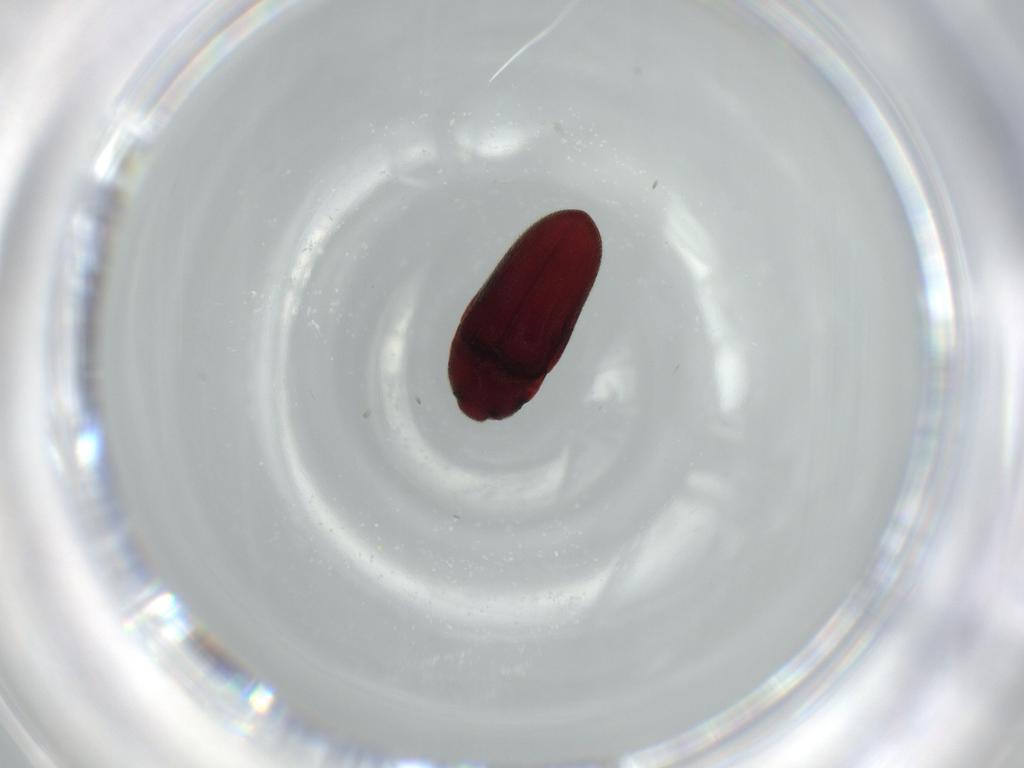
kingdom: Animalia
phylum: Arthropoda
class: Insecta
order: Coleoptera
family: Throscidae
